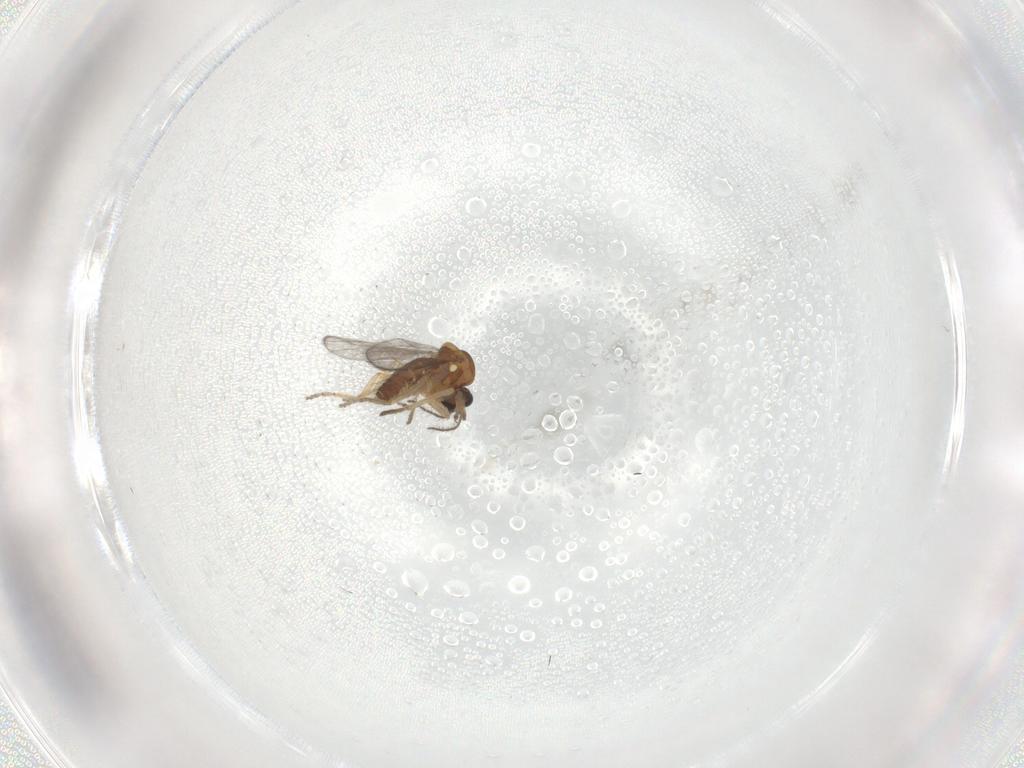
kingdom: Animalia
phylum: Arthropoda
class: Insecta
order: Diptera
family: Ceratopogonidae
